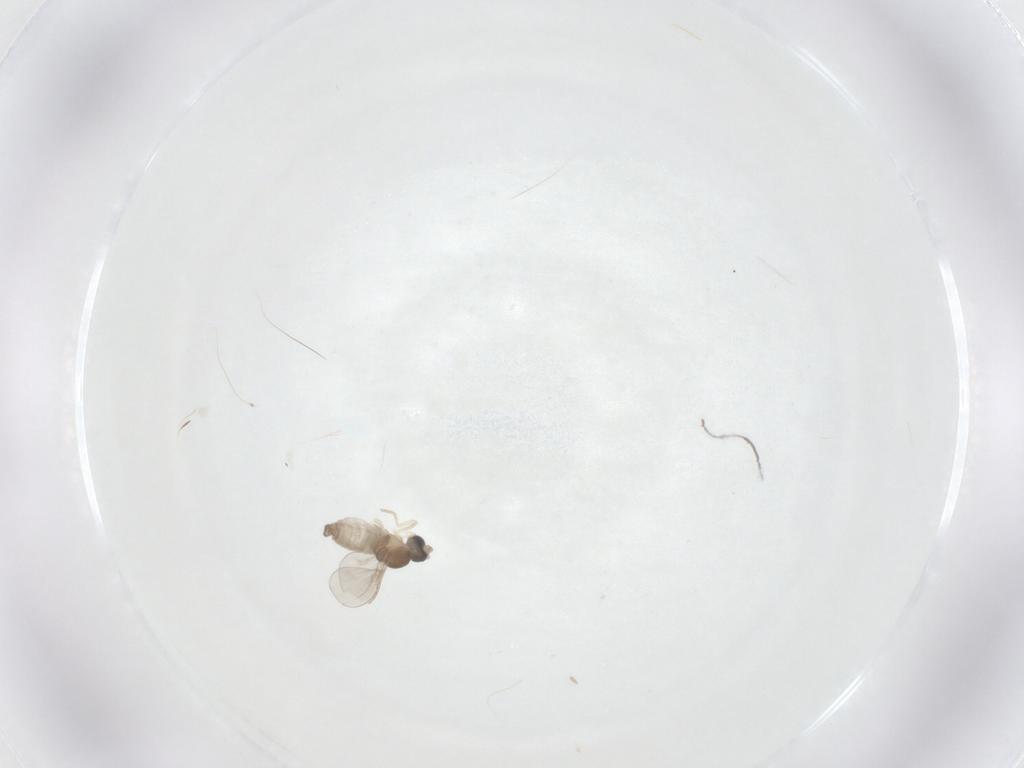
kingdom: Animalia
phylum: Arthropoda
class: Insecta
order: Diptera
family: Cecidomyiidae
